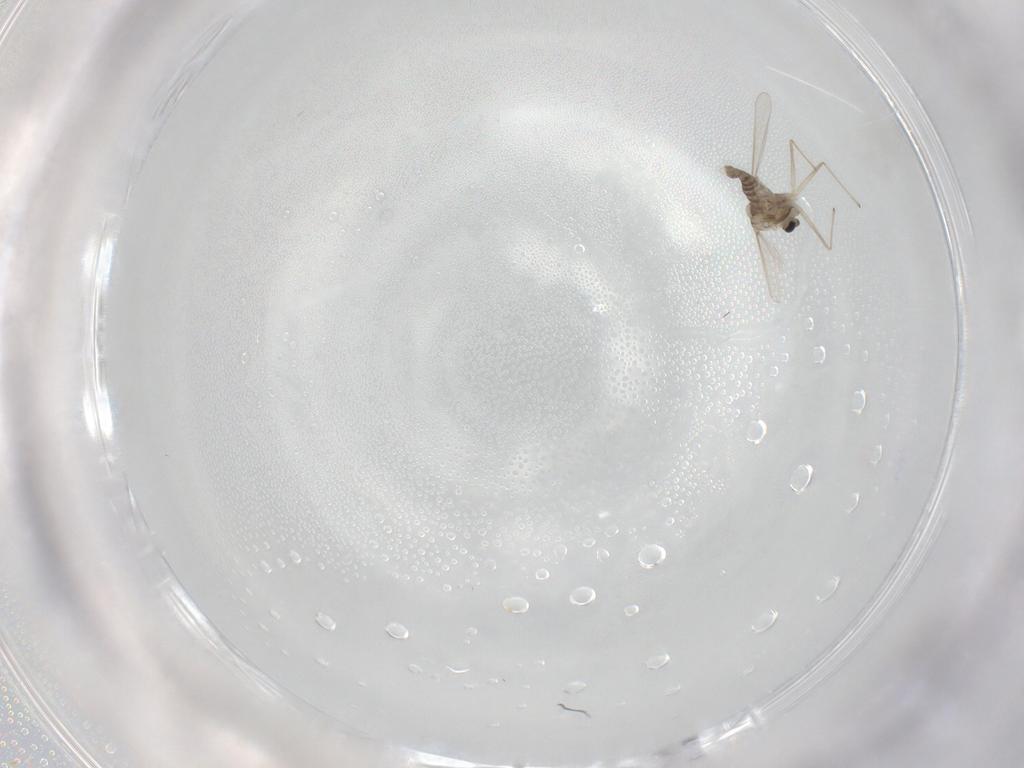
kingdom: Animalia
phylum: Arthropoda
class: Insecta
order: Diptera
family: Chironomidae
